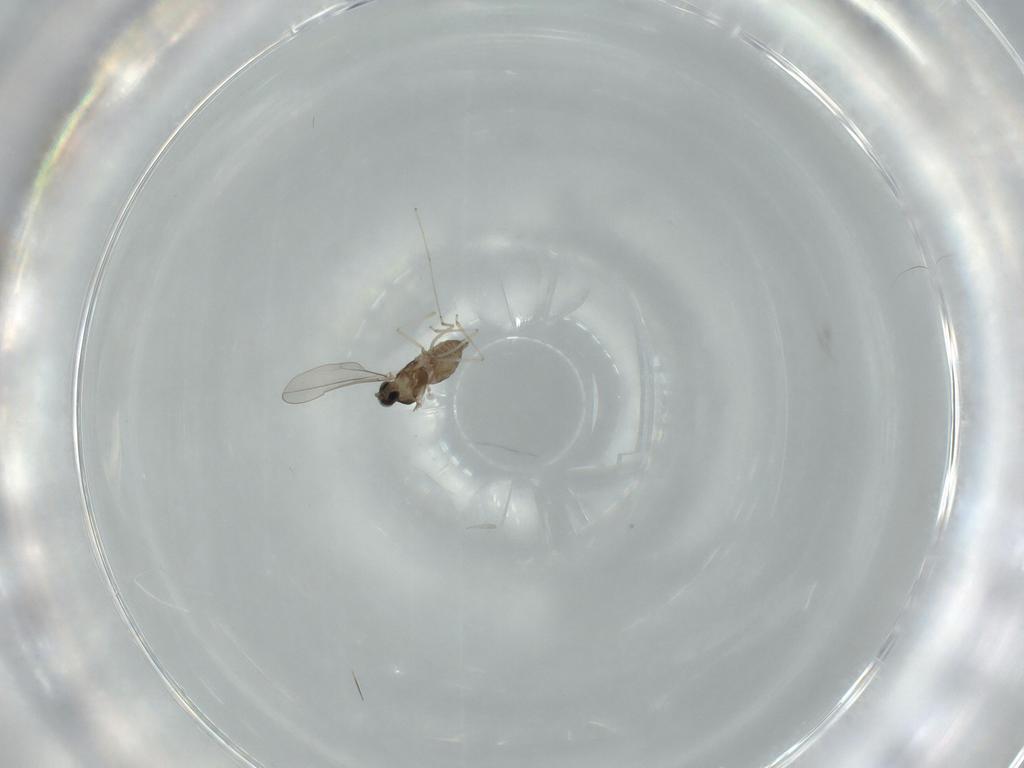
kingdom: Animalia
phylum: Arthropoda
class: Insecta
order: Diptera
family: Cecidomyiidae
